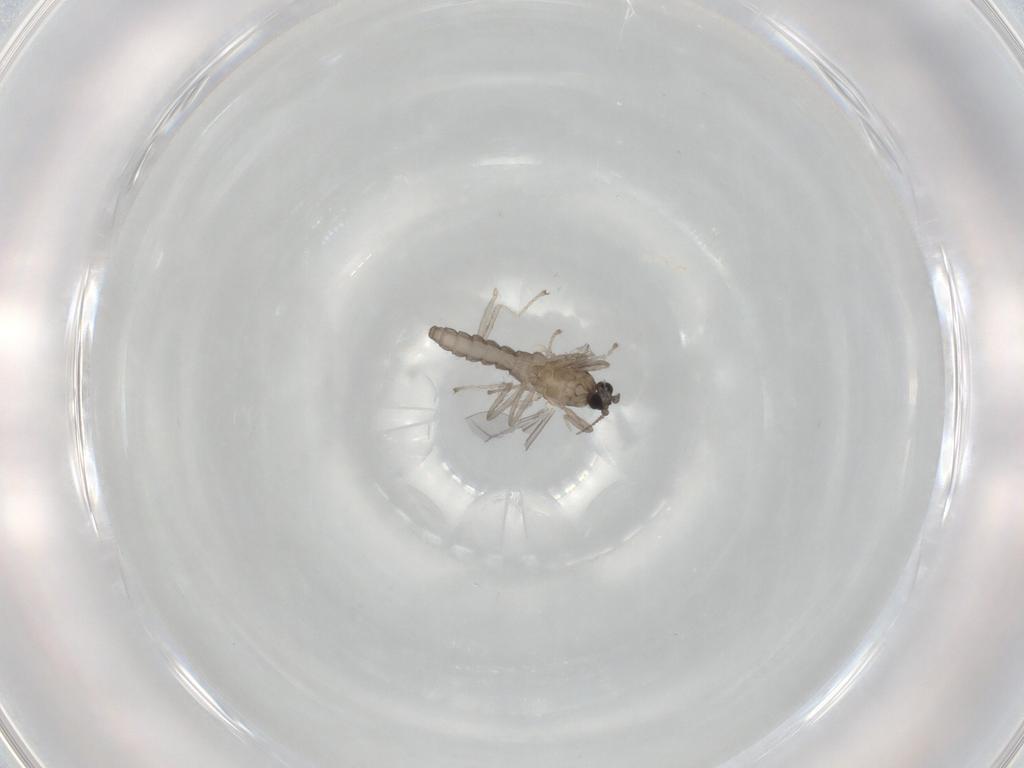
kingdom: Animalia
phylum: Arthropoda
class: Insecta
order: Diptera
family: Cecidomyiidae
